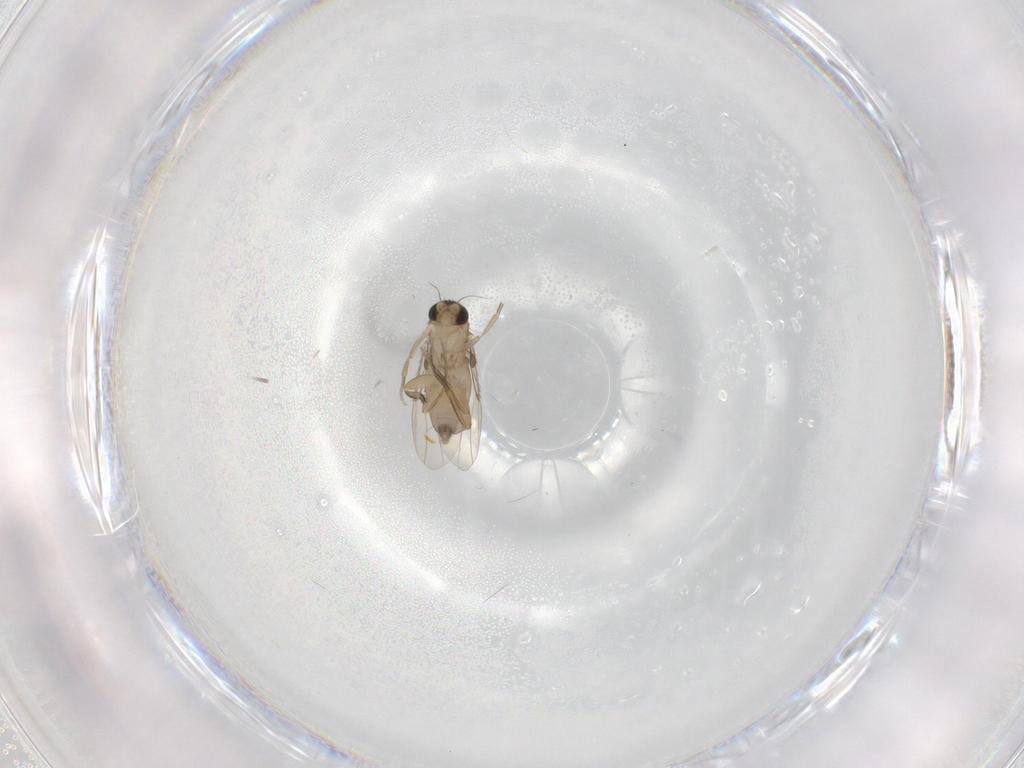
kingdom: Animalia
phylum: Arthropoda
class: Insecta
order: Diptera
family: Phoridae
